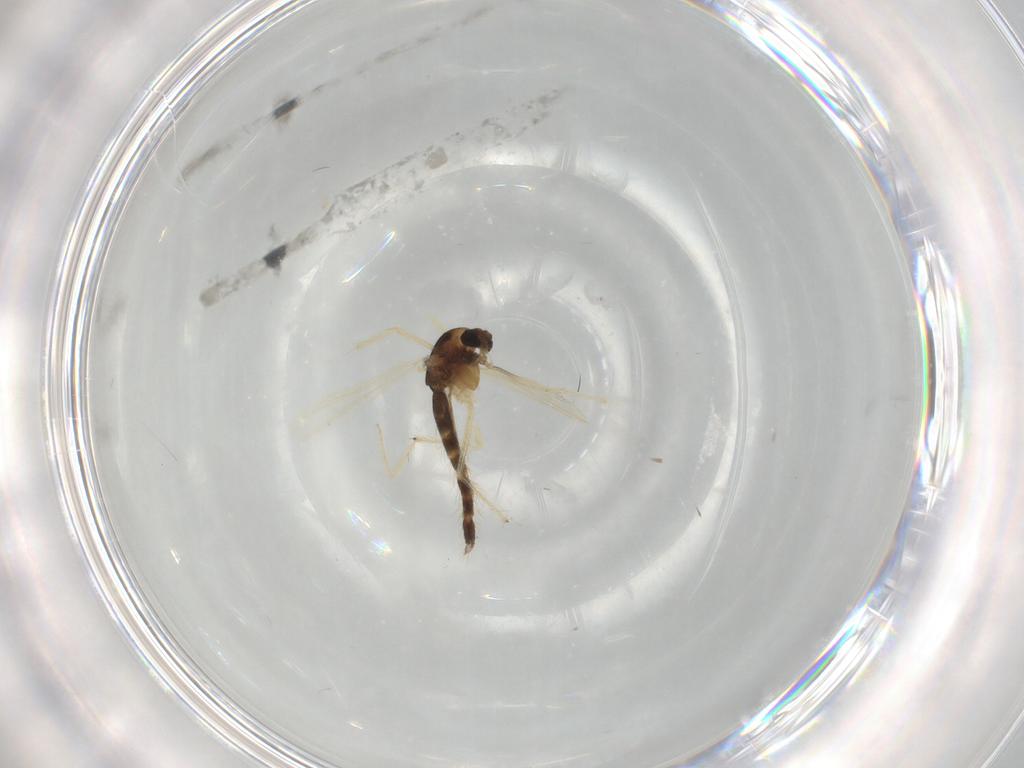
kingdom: Animalia
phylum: Arthropoda
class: Insecta
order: Diptera
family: Chironomidae
